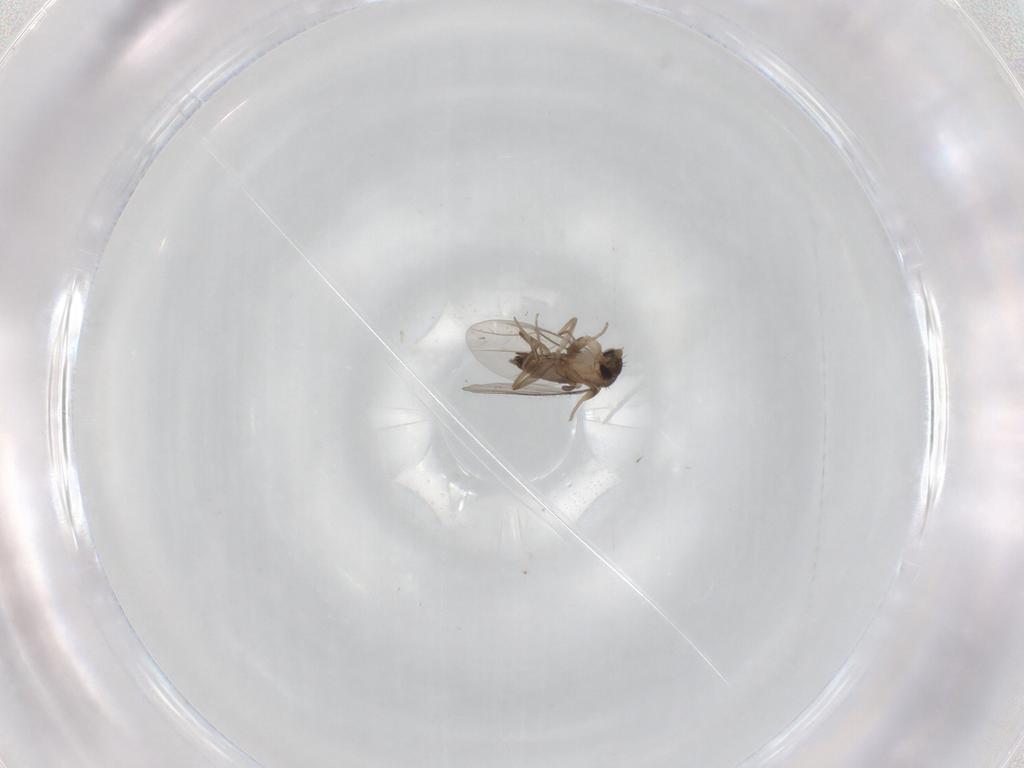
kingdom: Animalia
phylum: Arthropoda
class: Insecta
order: Diptera
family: Phoridae
